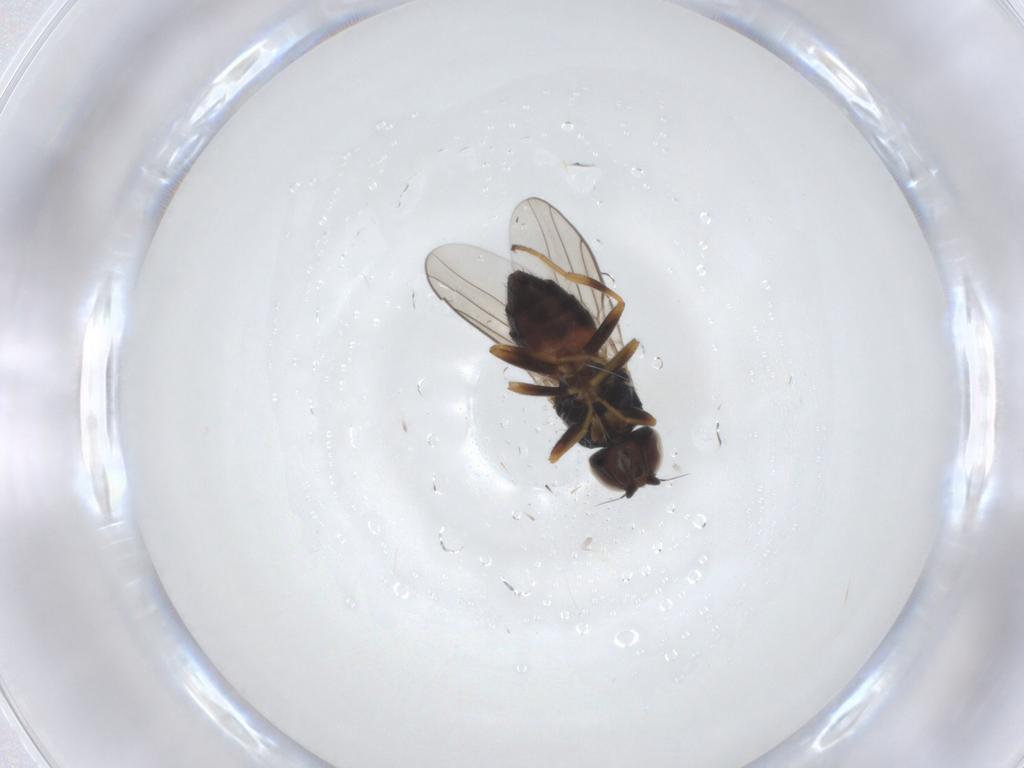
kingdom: Animalia
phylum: Arthropoda
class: Insecta
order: Diptera
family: Chloropidae
